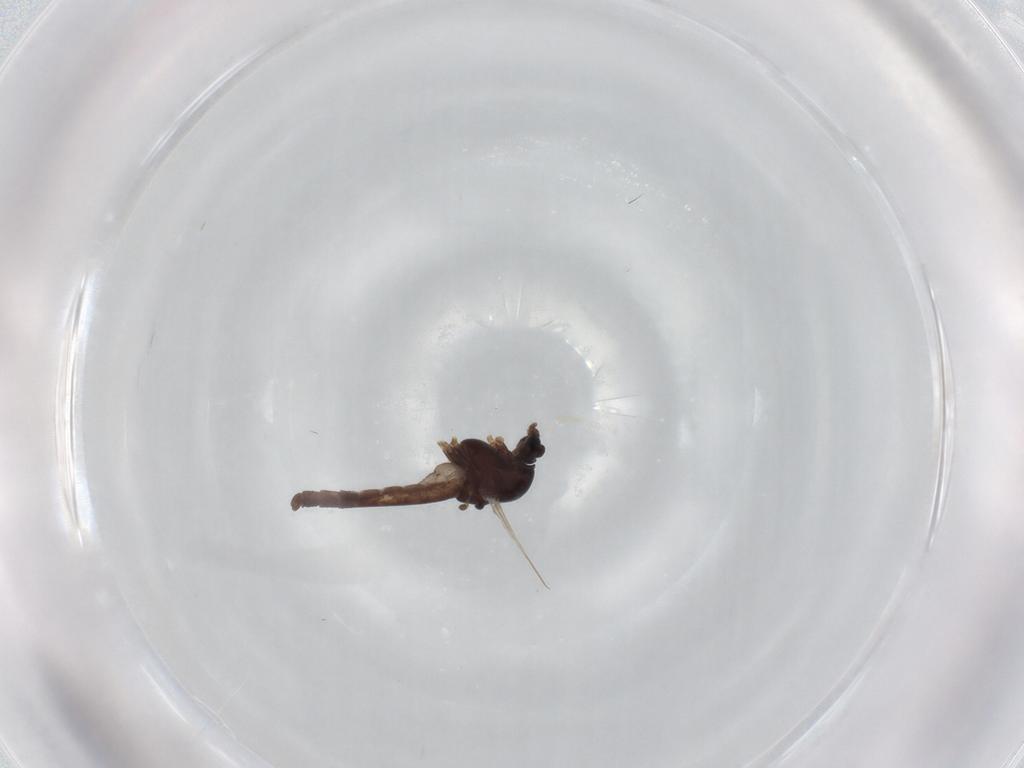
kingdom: Animalia
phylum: Arthropoda
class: Insecta
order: Diptera
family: Chironomidae
